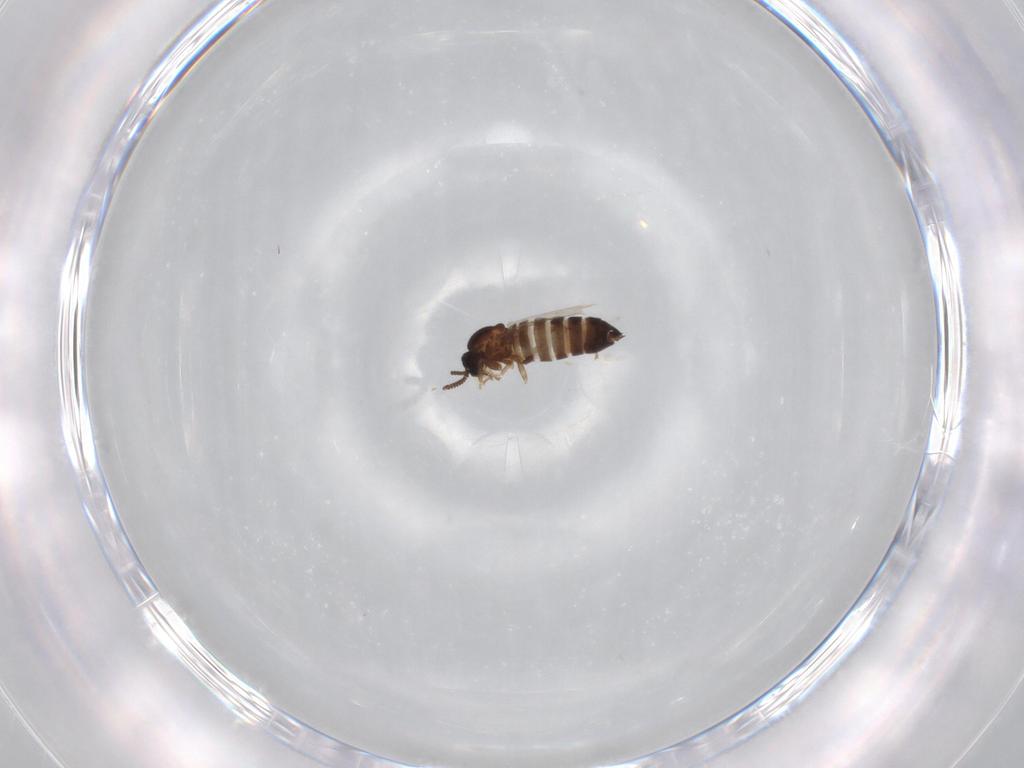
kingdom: Animalia
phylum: Arthropoda
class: Insecta
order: Diptera
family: Scatopsidae
